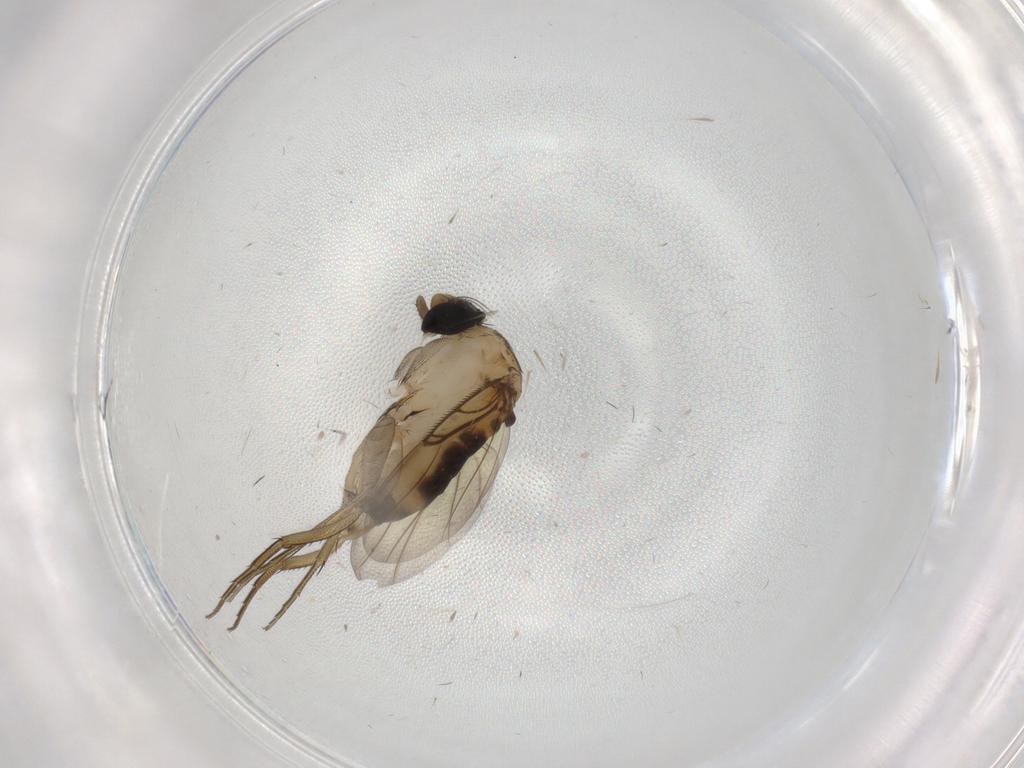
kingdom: Animalia
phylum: Arthropoda
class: Insecta
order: Diptera
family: Phoridae
